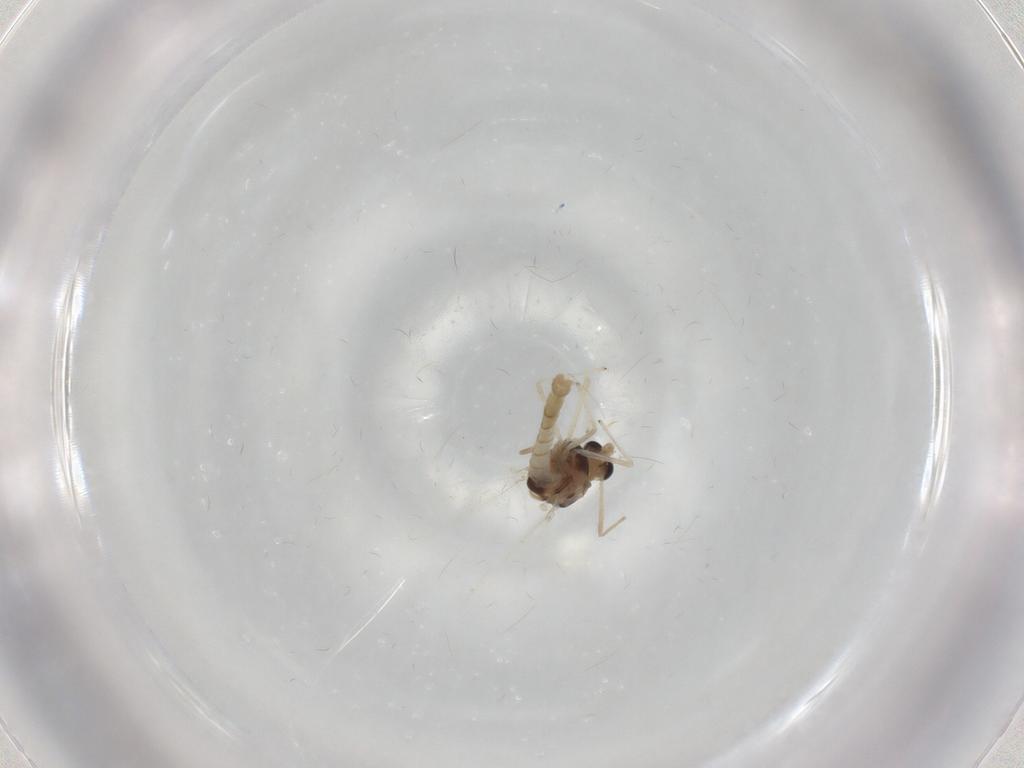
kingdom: Animalia
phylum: Arthropoda
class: Insecta
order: Diptera
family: Chironomidae
